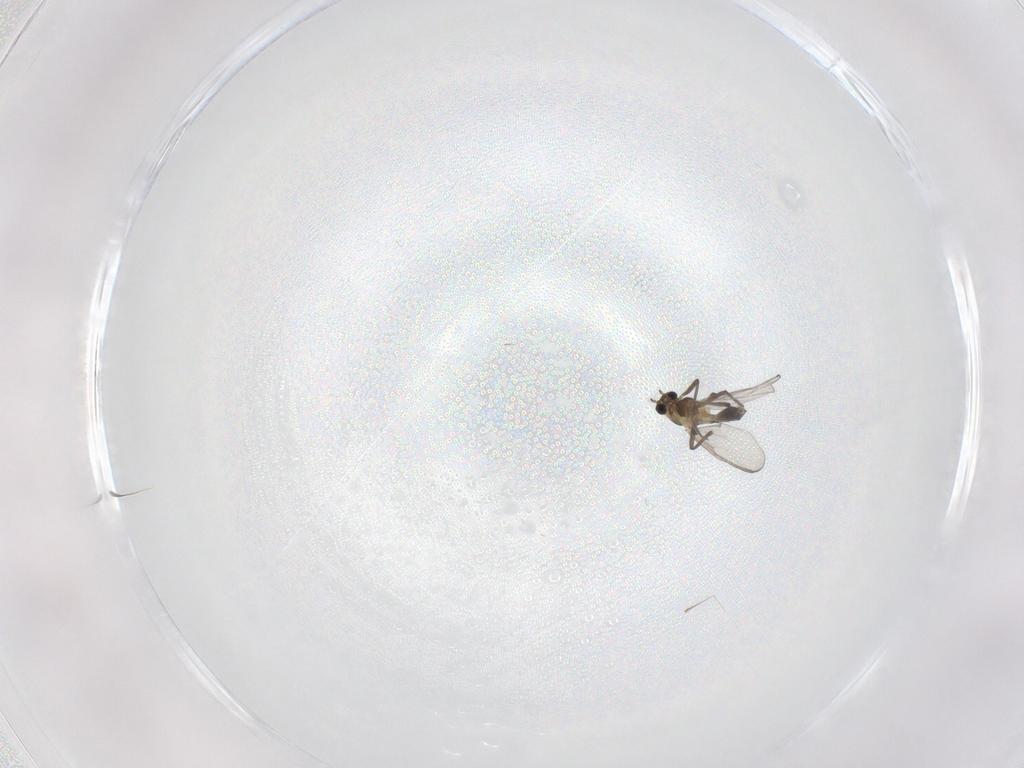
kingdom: Animalia
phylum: Arthropoda
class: Insecta
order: Diptera
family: Chironomidae
